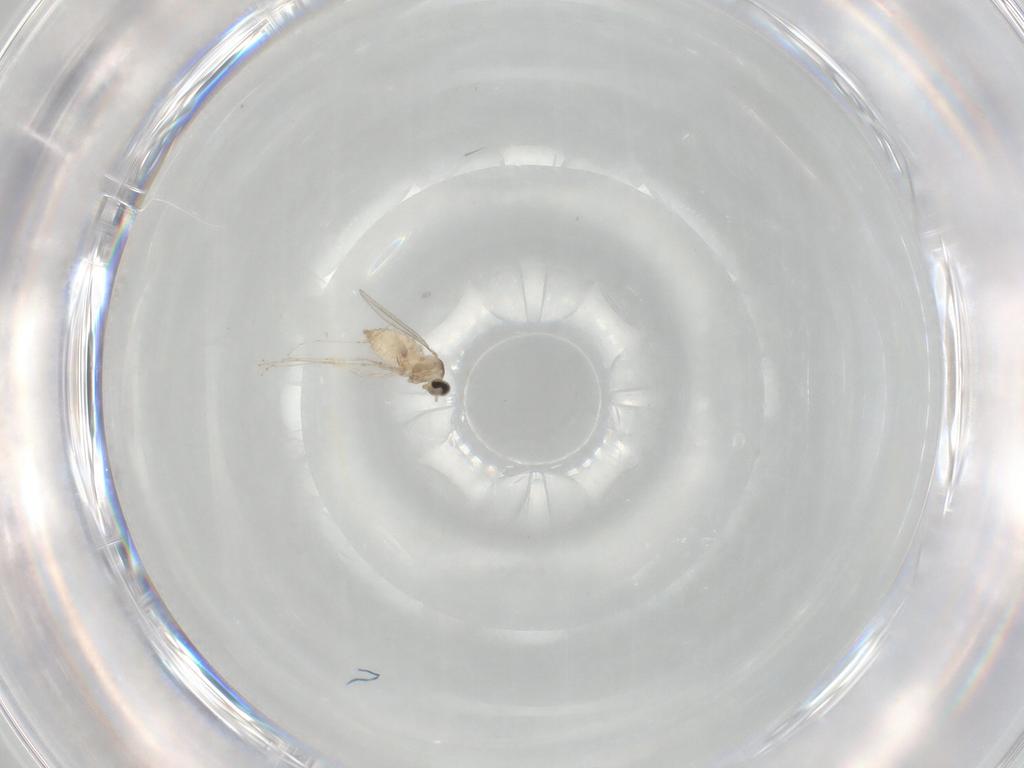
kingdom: Animalia
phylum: Arthropoda
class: Insecta
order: Diptera
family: Cecidomyiidae
